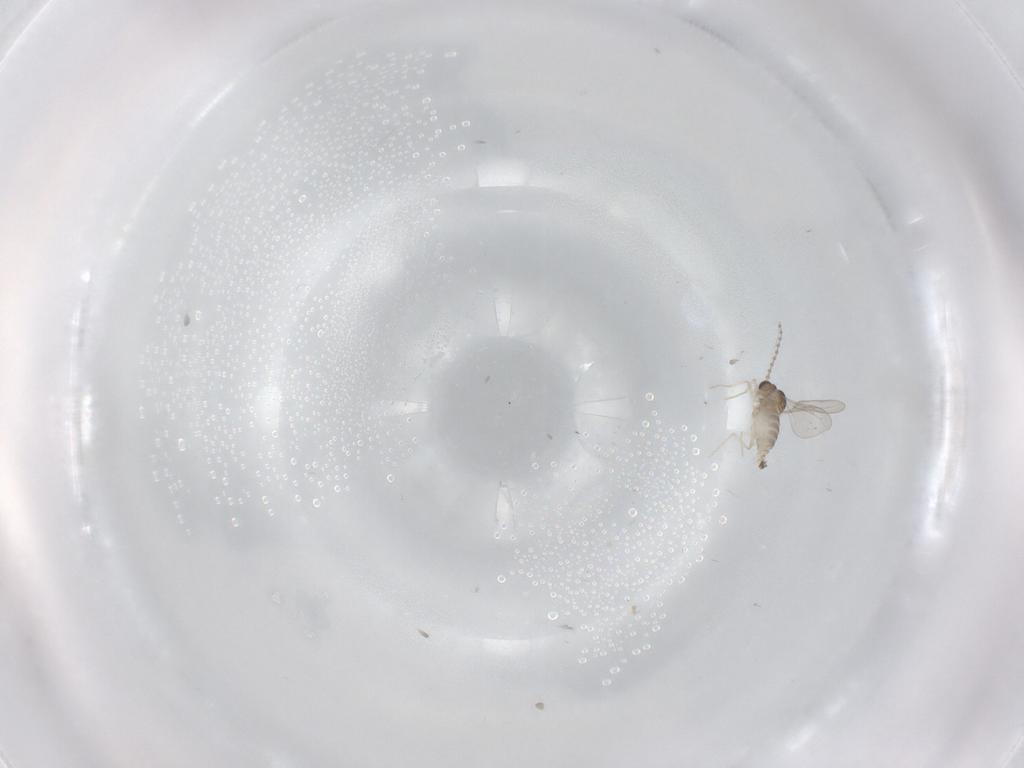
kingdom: Animalia
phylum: Arthropoda
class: Insecta
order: Diptera
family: Cecidomyiidae
